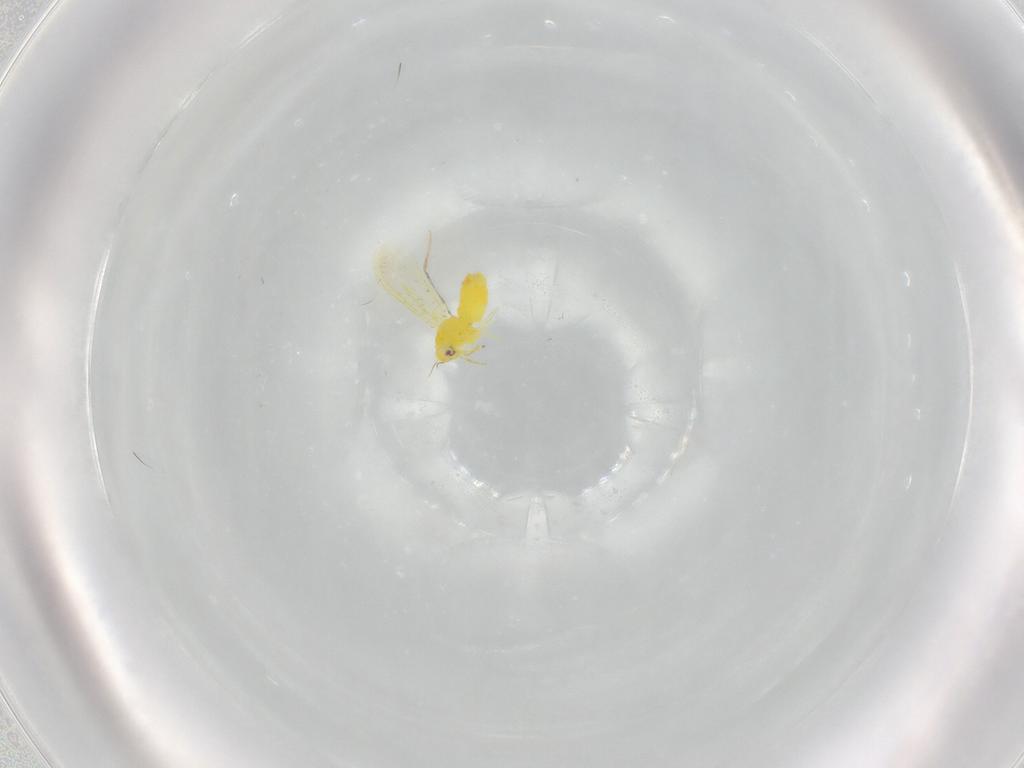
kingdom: Animalia
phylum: Arthropoda
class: Insecta
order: Hemiptera
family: Aleyrodidae
